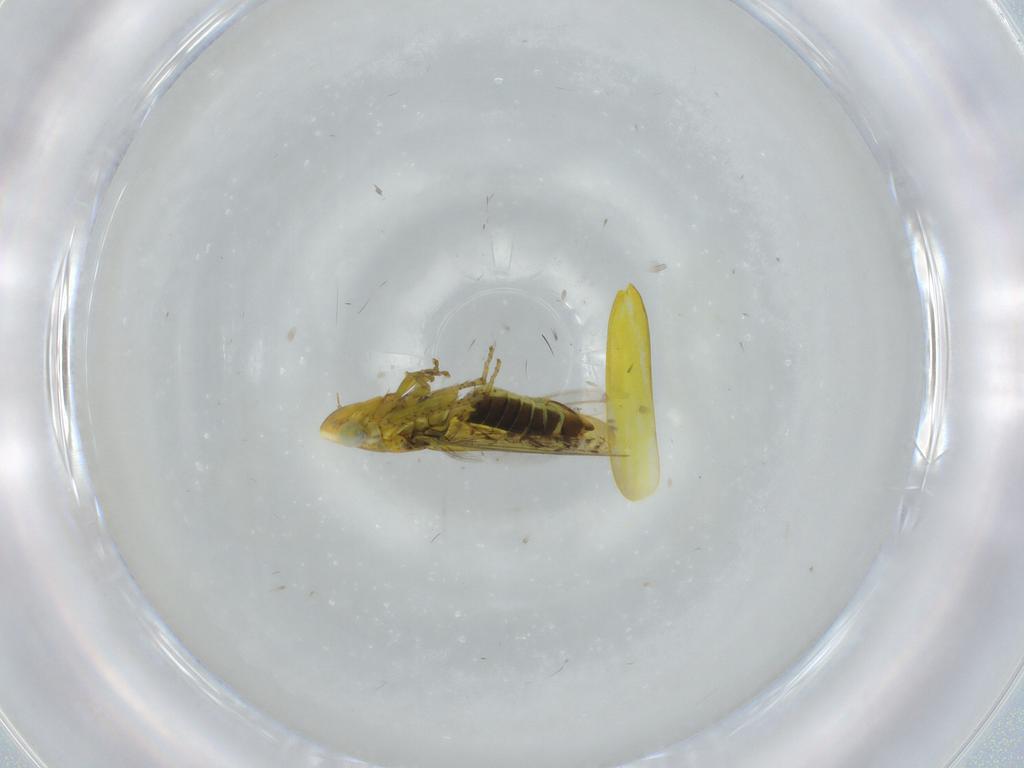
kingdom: Animalia
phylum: Arthropoda
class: Insecta
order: Hemiptera
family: Cicadellidae
